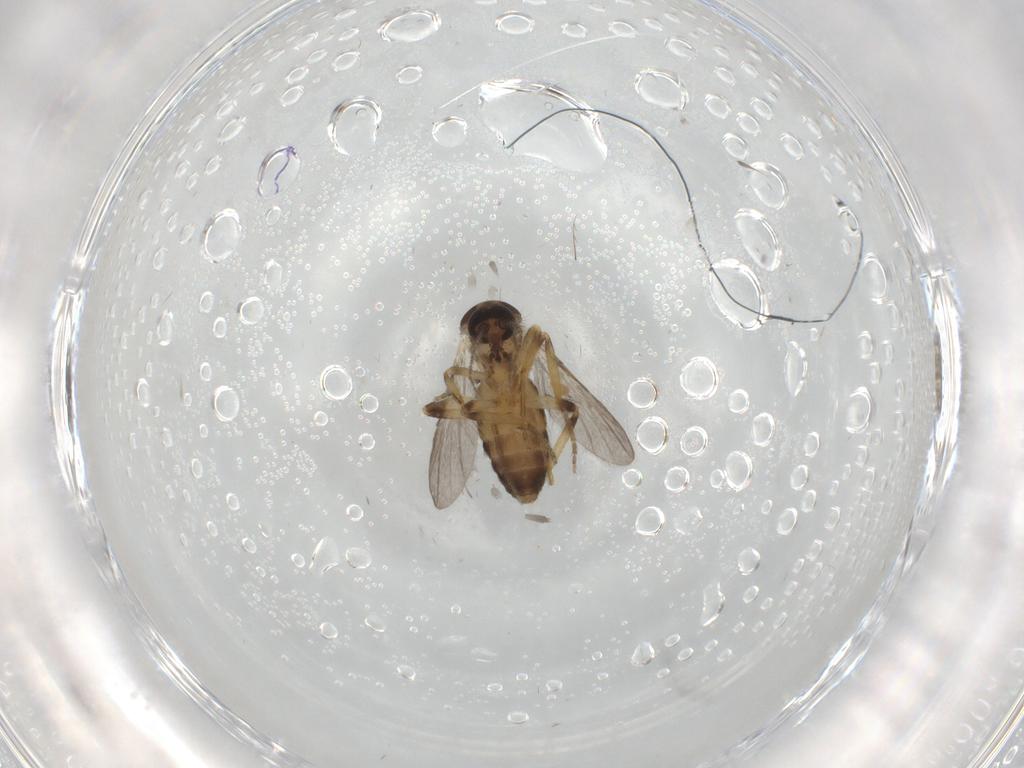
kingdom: Animalia
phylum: Arthropoda
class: Insecta
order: Diptera
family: Ceratopogonidae
